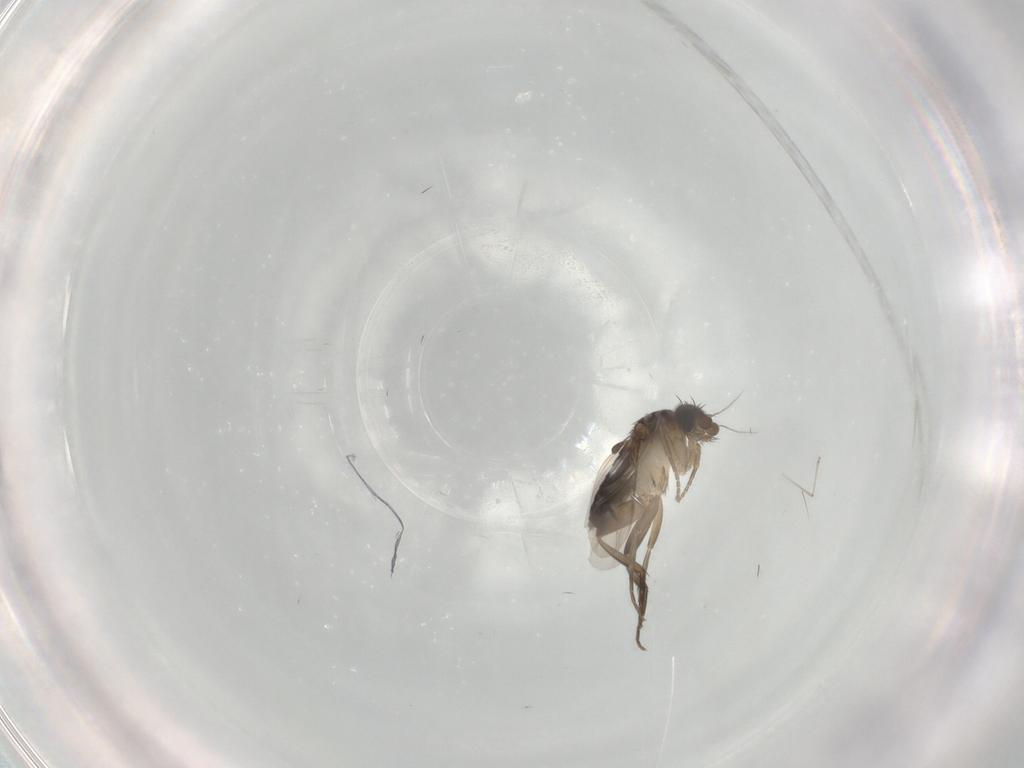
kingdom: Animalia
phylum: Arthropoda
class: Insecta
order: Diptera
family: Phoridae
